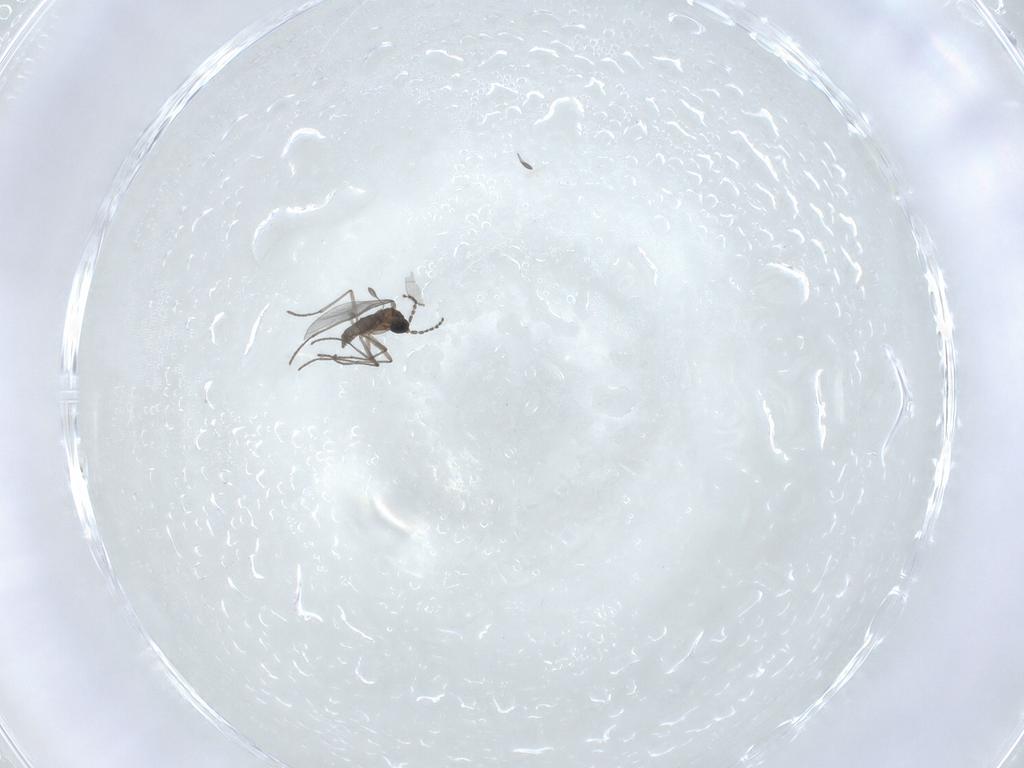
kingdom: Animalia
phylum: Arthropoda
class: Insecta
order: Diptera
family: Sciaridae
